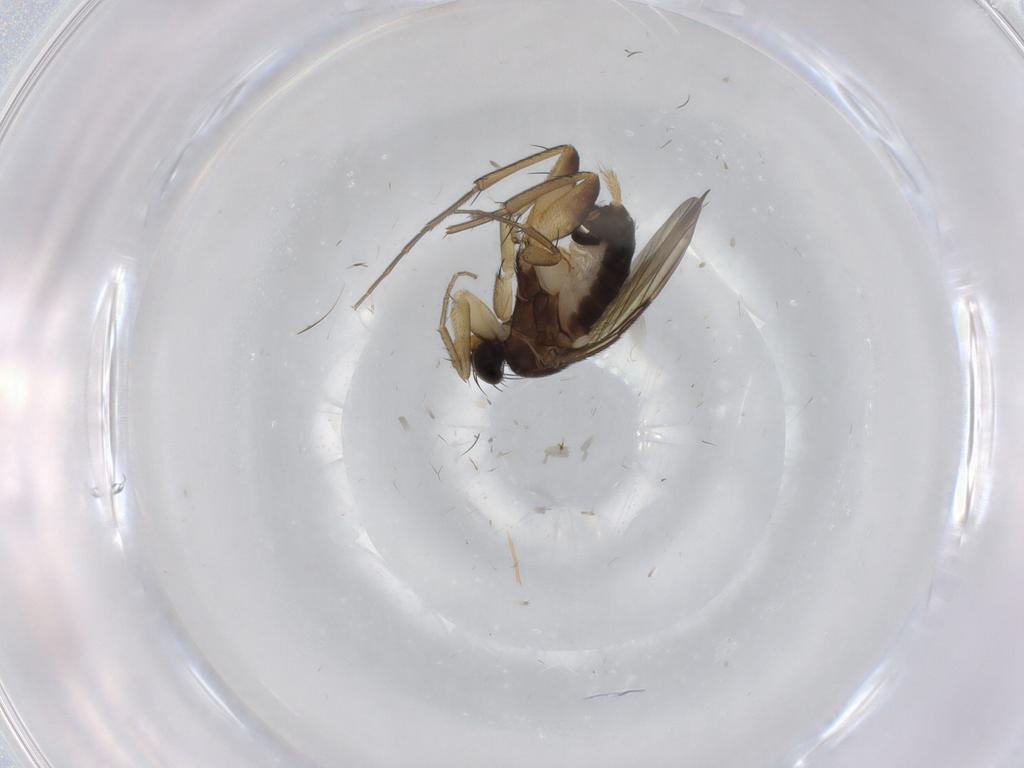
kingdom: Animalia
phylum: Arthropoda
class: Insecta
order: Diptera
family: Phoridae
